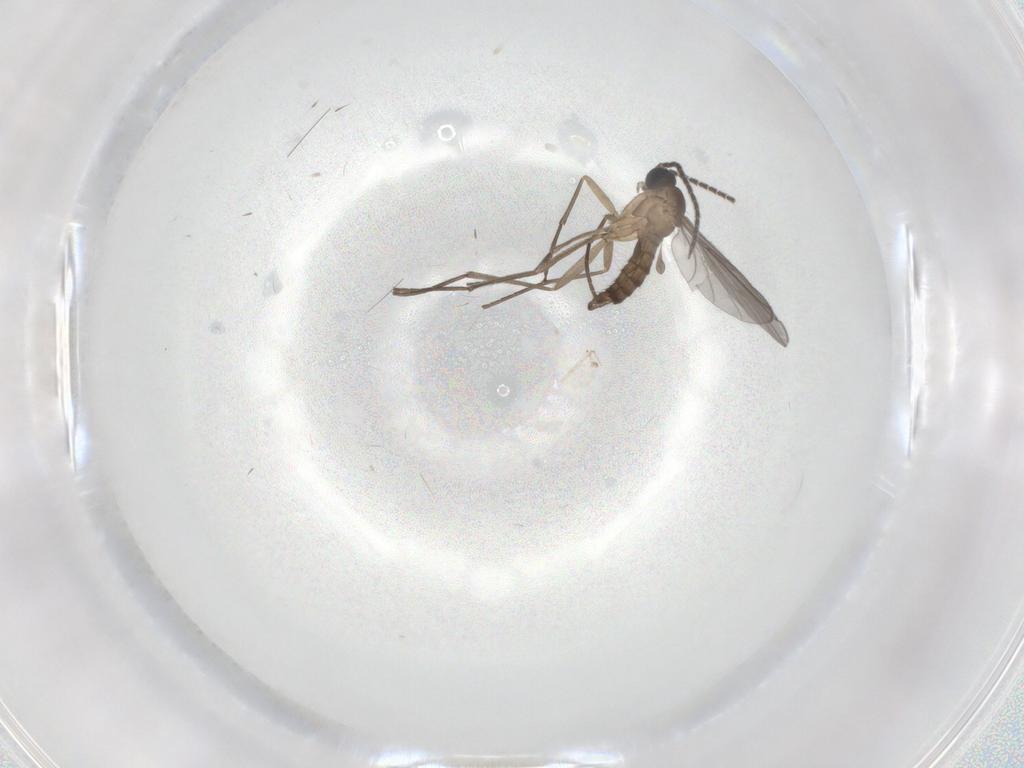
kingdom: Animalia
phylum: Arthropoda
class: Insecta
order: Diptera
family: Sciaridae
